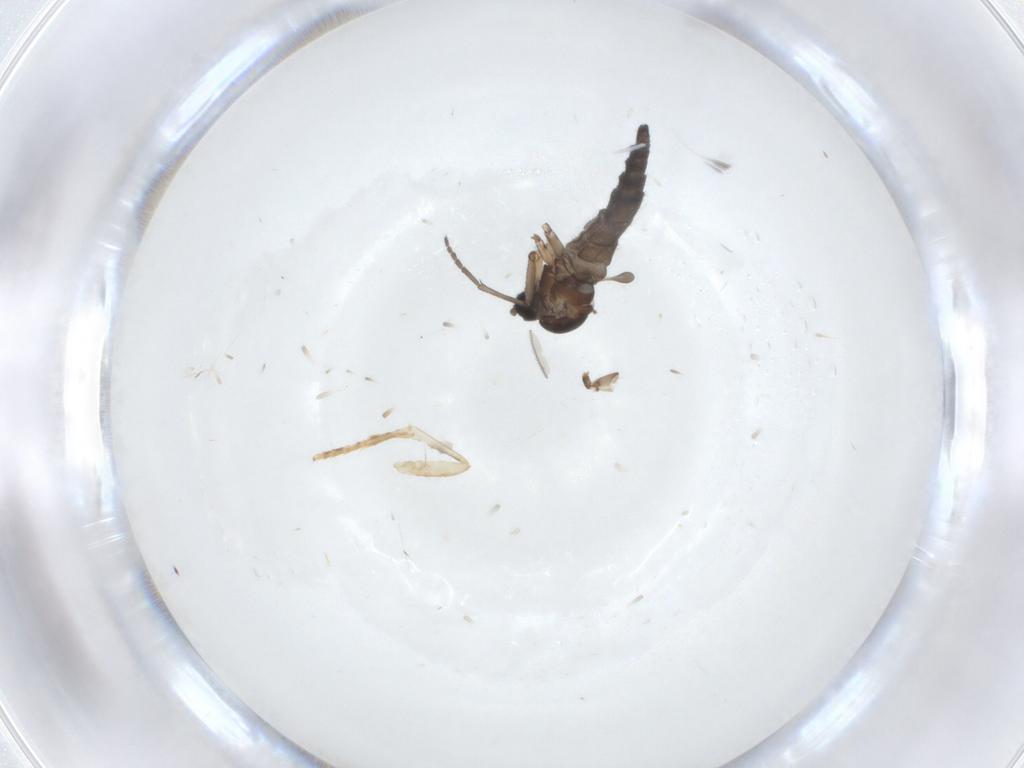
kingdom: Animalia
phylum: Arthropoda
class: Insecta
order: Diptera
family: Sciaridae
